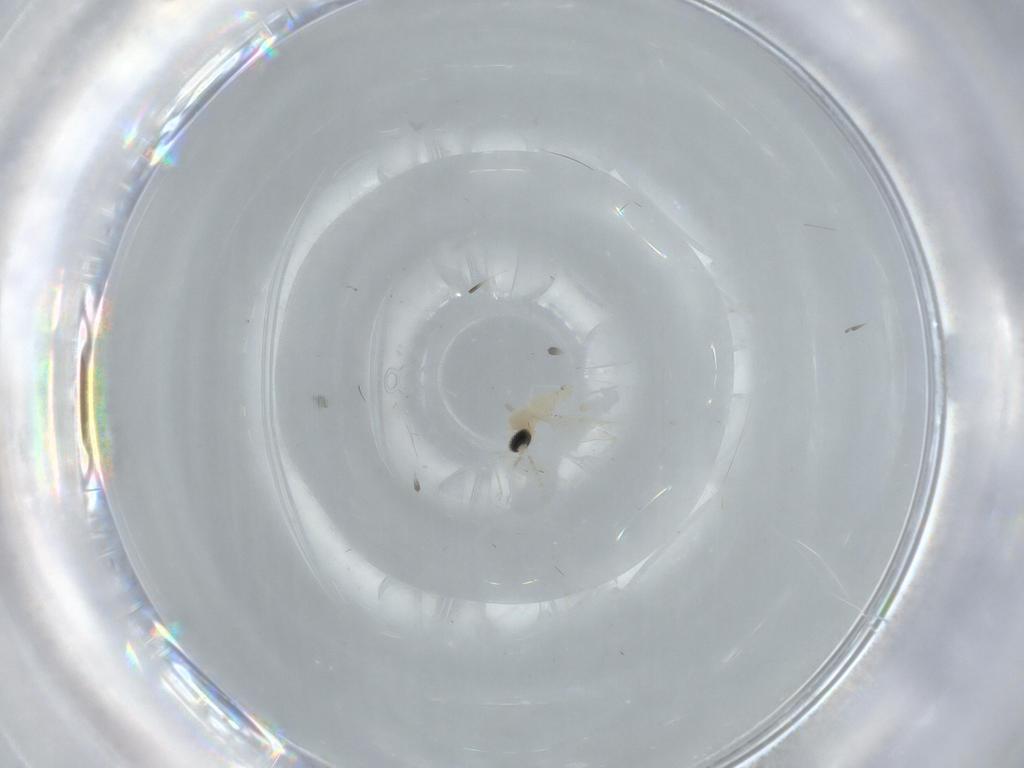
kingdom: Animalia
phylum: Arthropoda
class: Insecta
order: Diptera
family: Sciaridae
